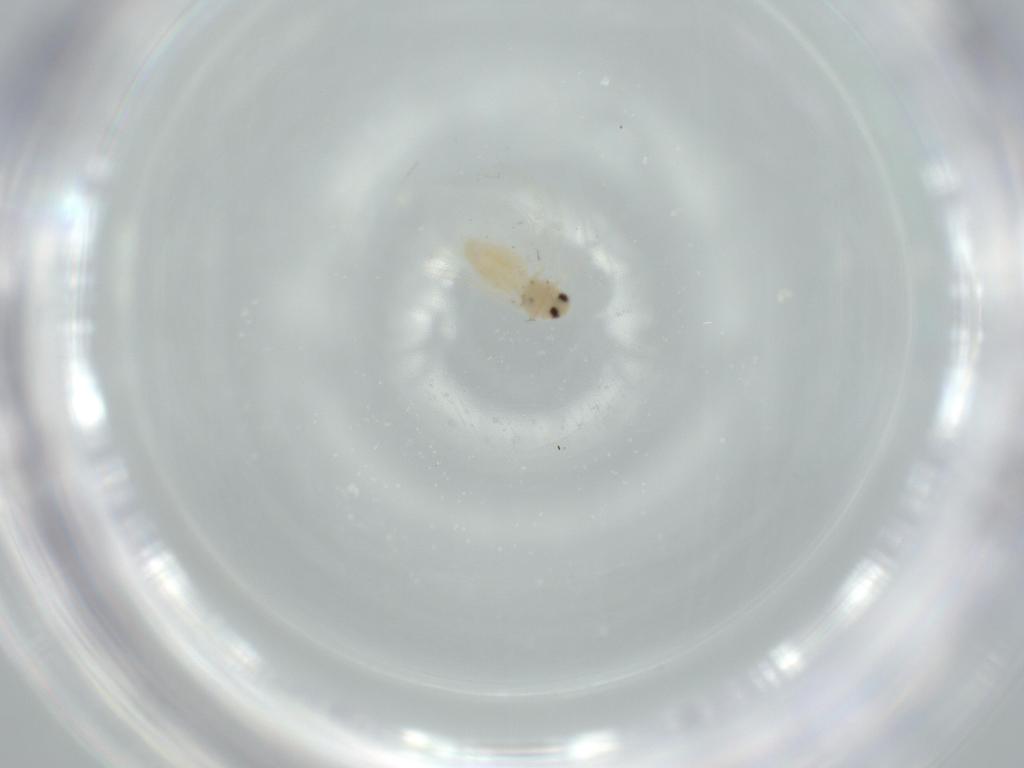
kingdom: Animalia
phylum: Arthropoda
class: Insecta
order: Hemiptera
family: Aleyrodidae
